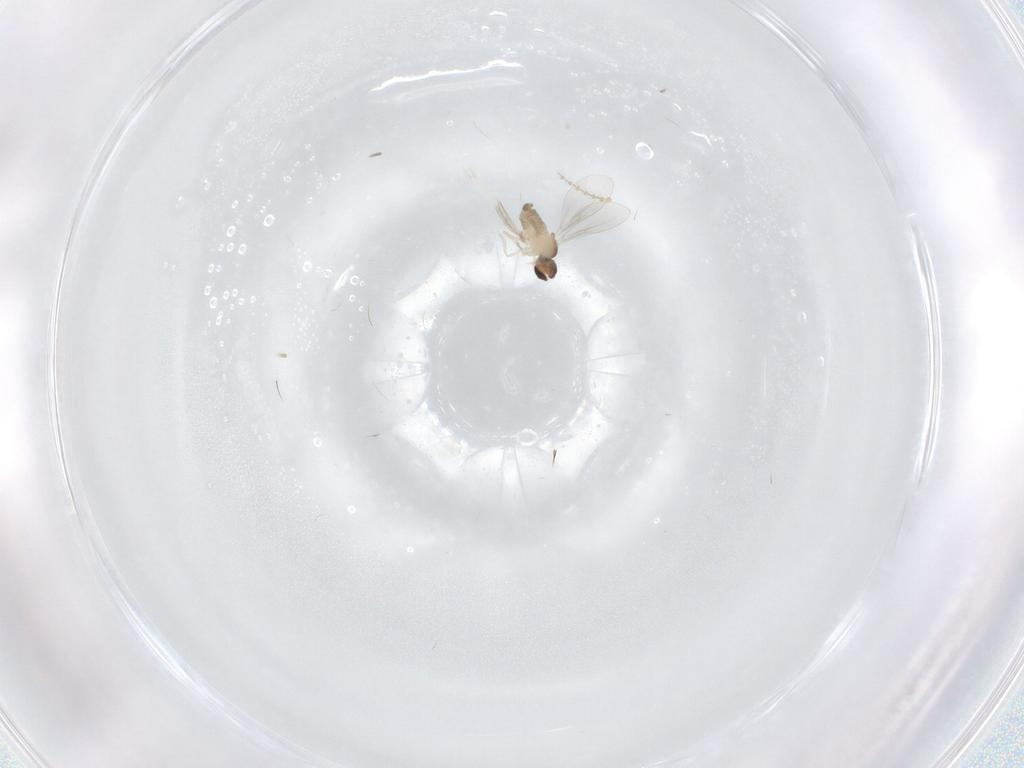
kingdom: Animalia
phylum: Arthropoda
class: Insecta
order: Diptera
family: Cecidomyiidae
